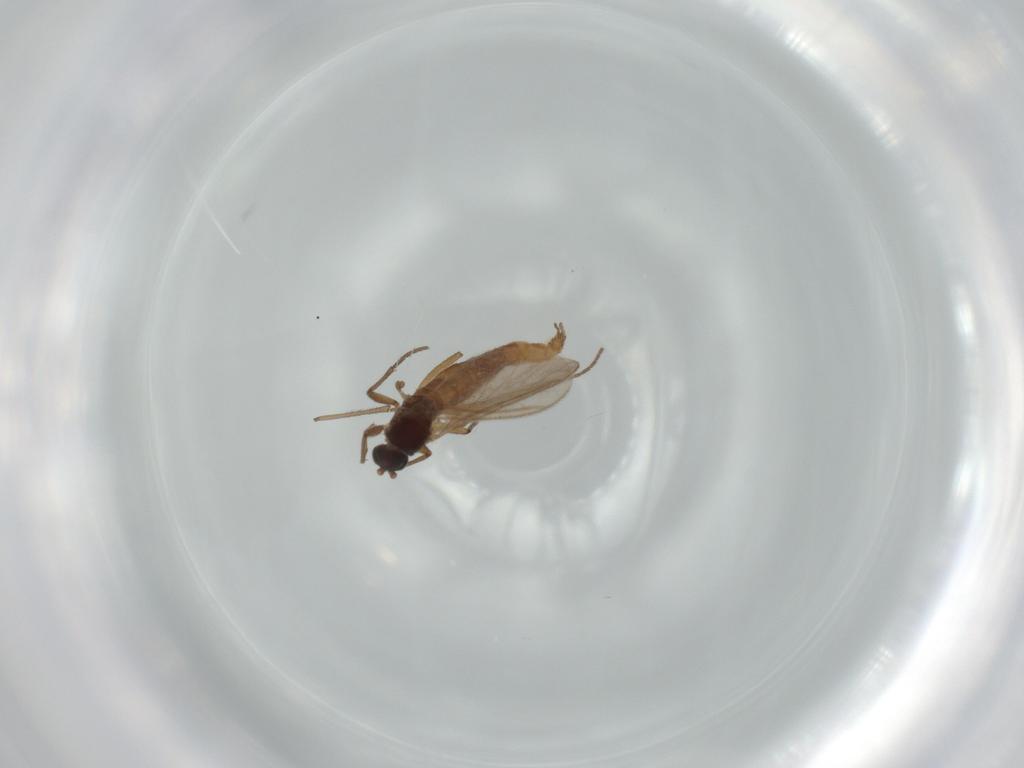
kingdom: Animalia
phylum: Arthropoda
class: Insecta
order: Diptera
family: Sciaridae
